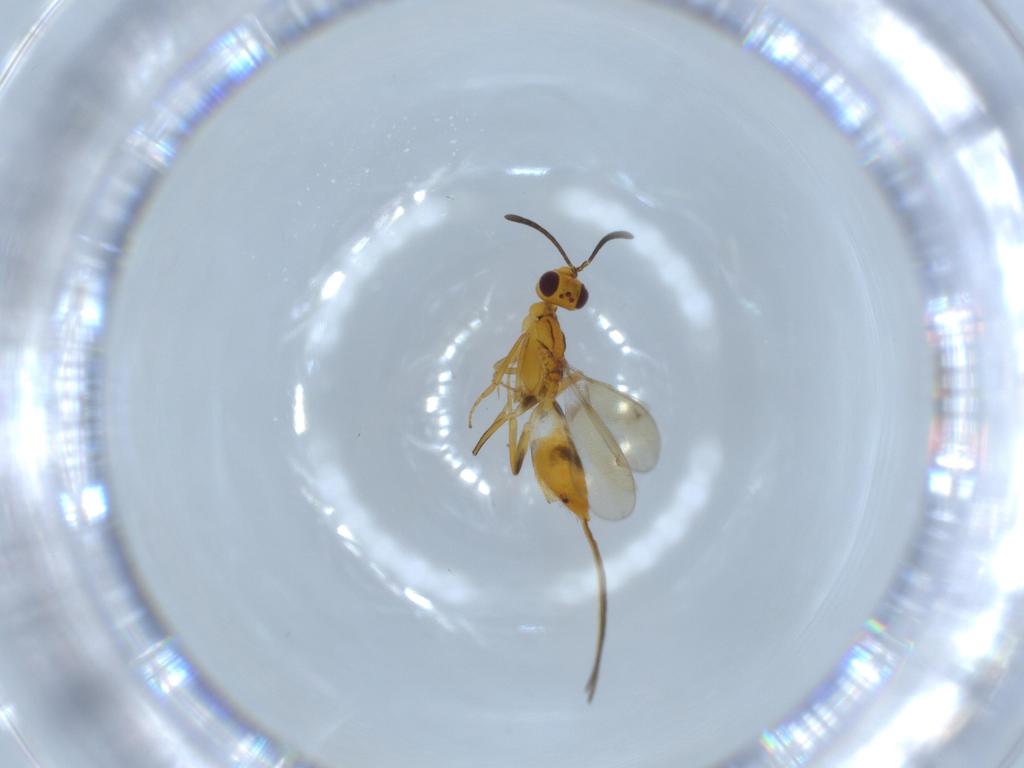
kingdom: Animalia
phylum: Arthropoda
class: Insecta
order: Hymenoptera
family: Scelionidae
